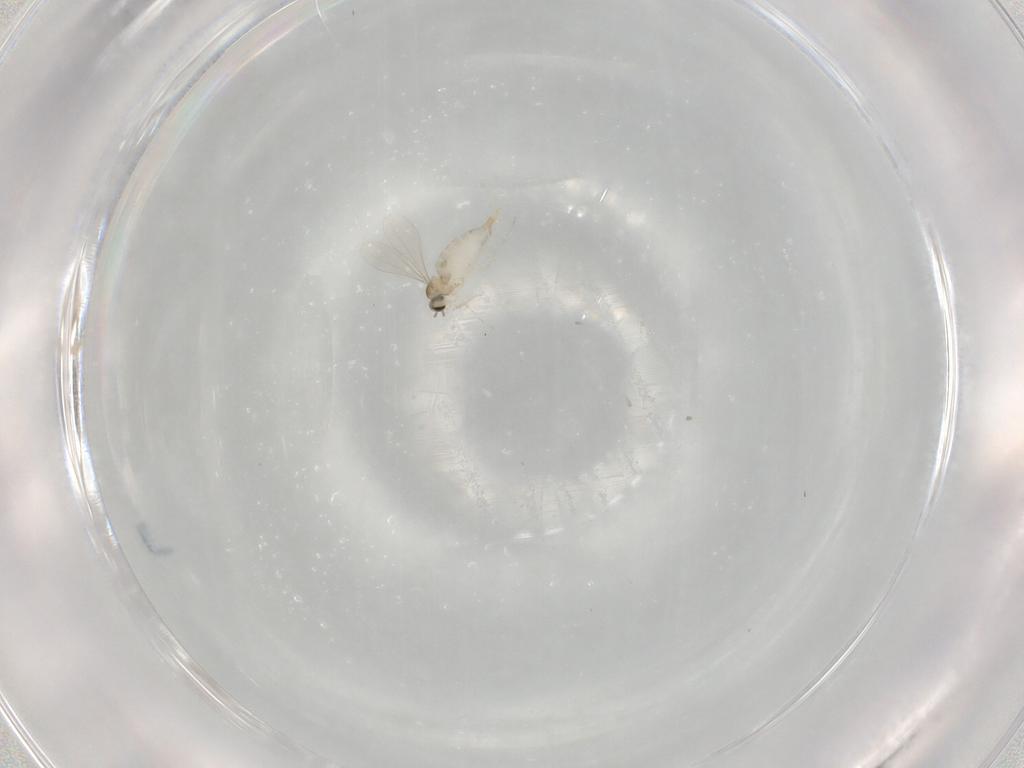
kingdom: Animalia
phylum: Arthropoda
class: Insecta
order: Diptera
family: Cecidomyiidae
